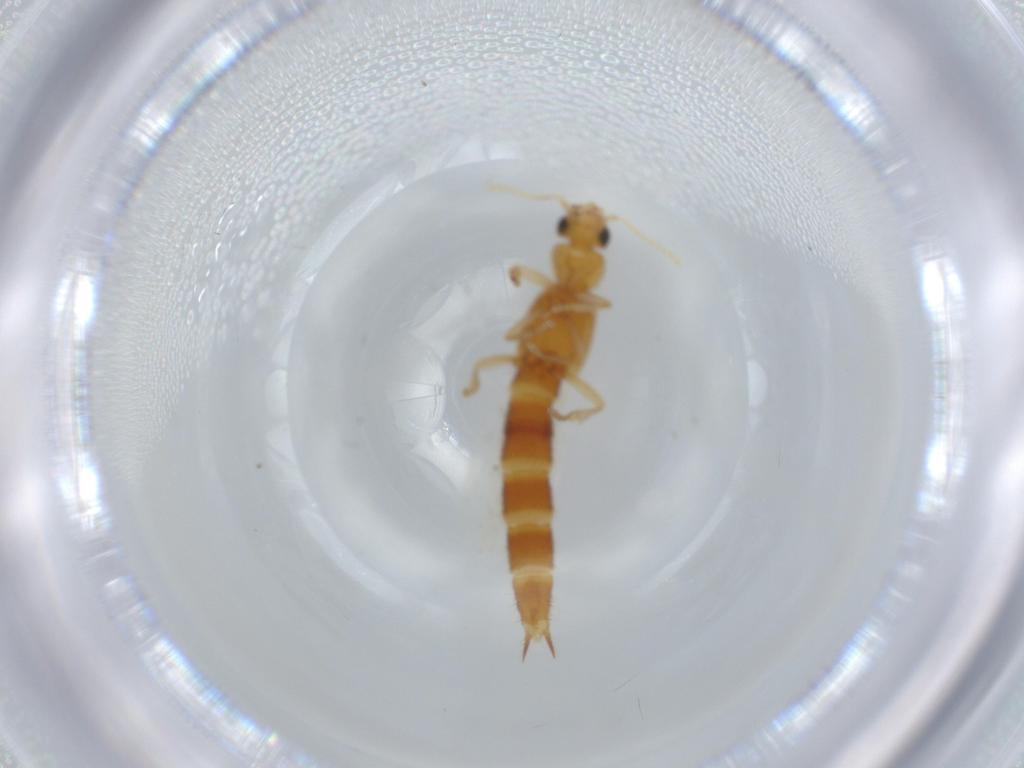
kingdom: Animalia
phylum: Arthropoda
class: Insecta
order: Coleoptera
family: Staphylinidae
